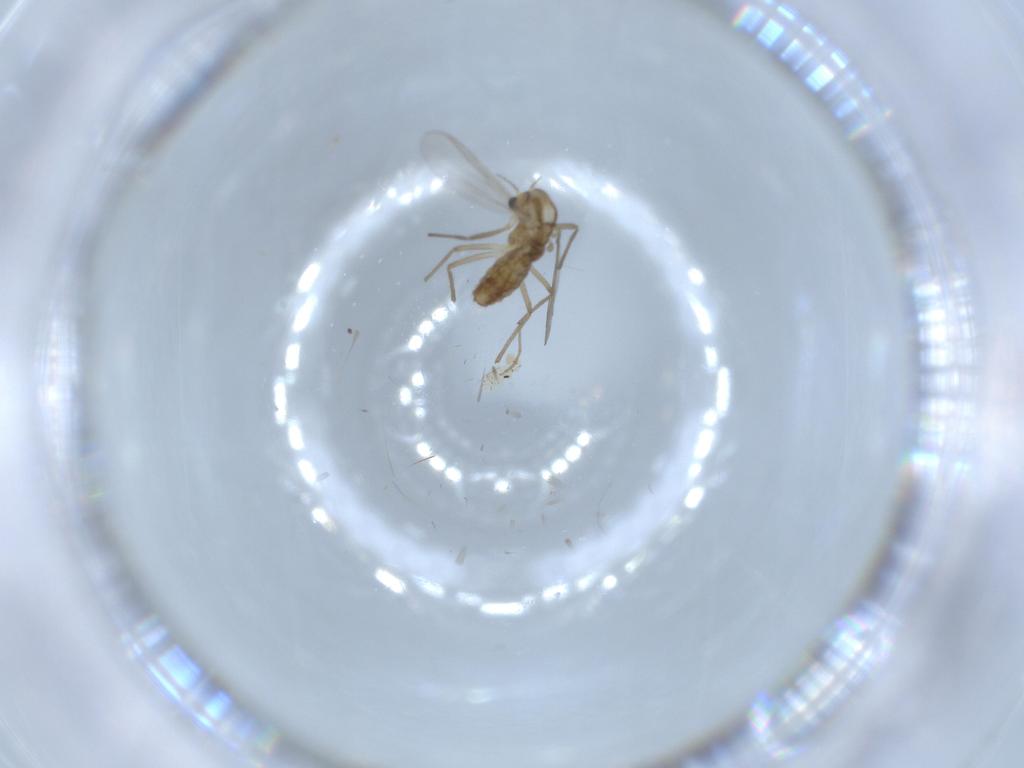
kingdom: Animalia
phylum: Arthropoda
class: Insecta
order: Diptera
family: Chironomidae
